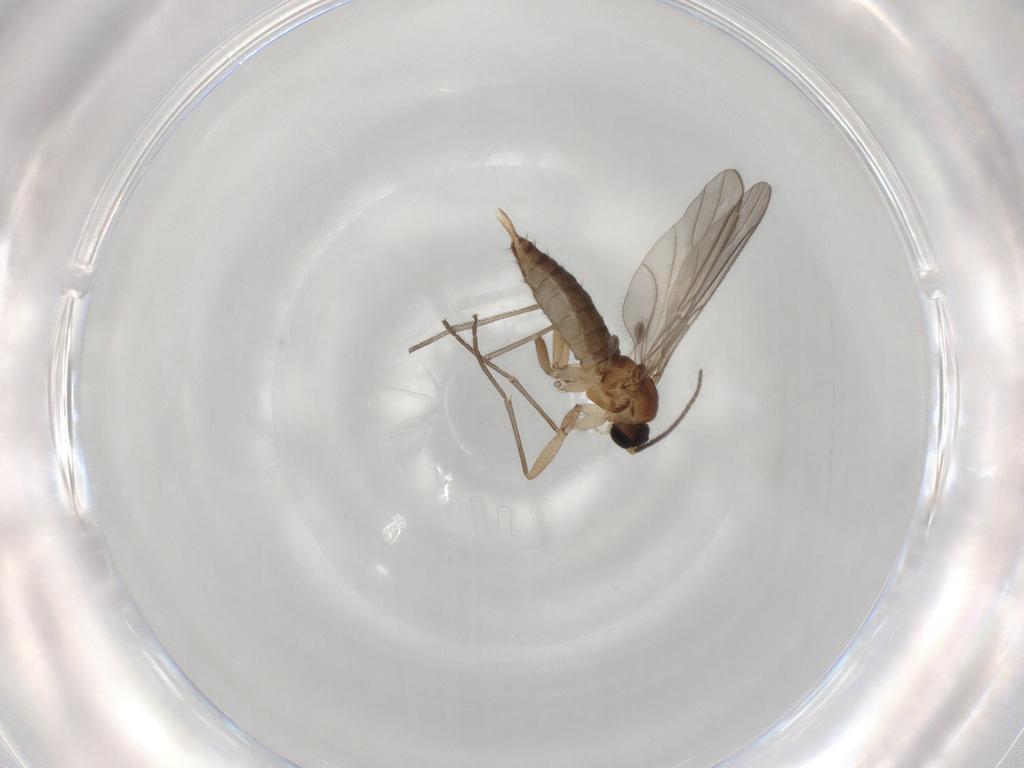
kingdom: Animalia
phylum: Arthropoda
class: Insecta
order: Diptera
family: Sciaridae
